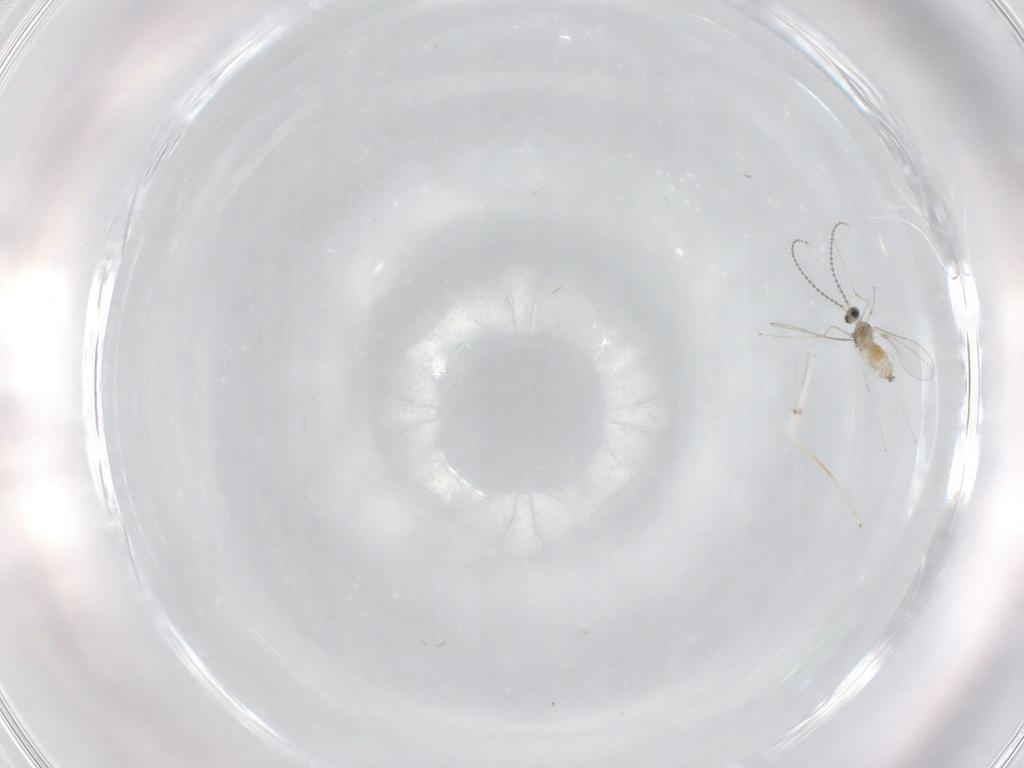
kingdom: Animalia
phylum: Arthropoda
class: Insecta
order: Diptera
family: Cecidomyiidae
